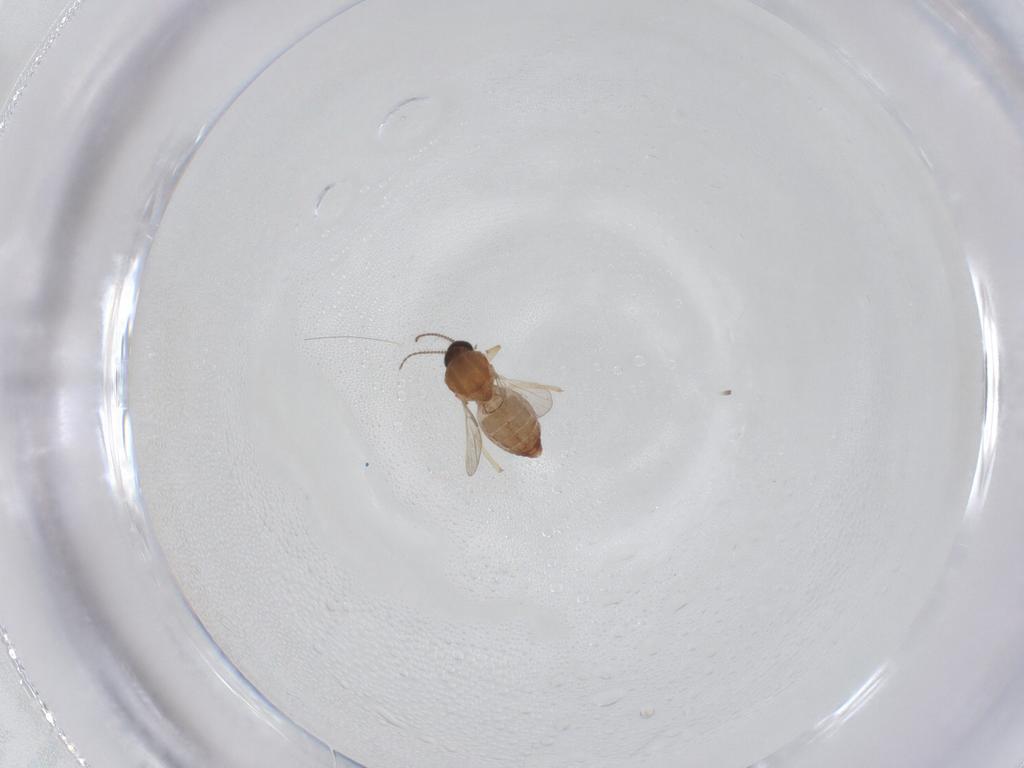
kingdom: Animalia
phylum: Arthropoda
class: Insecta
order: Diptera
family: Ceratopogonidae
